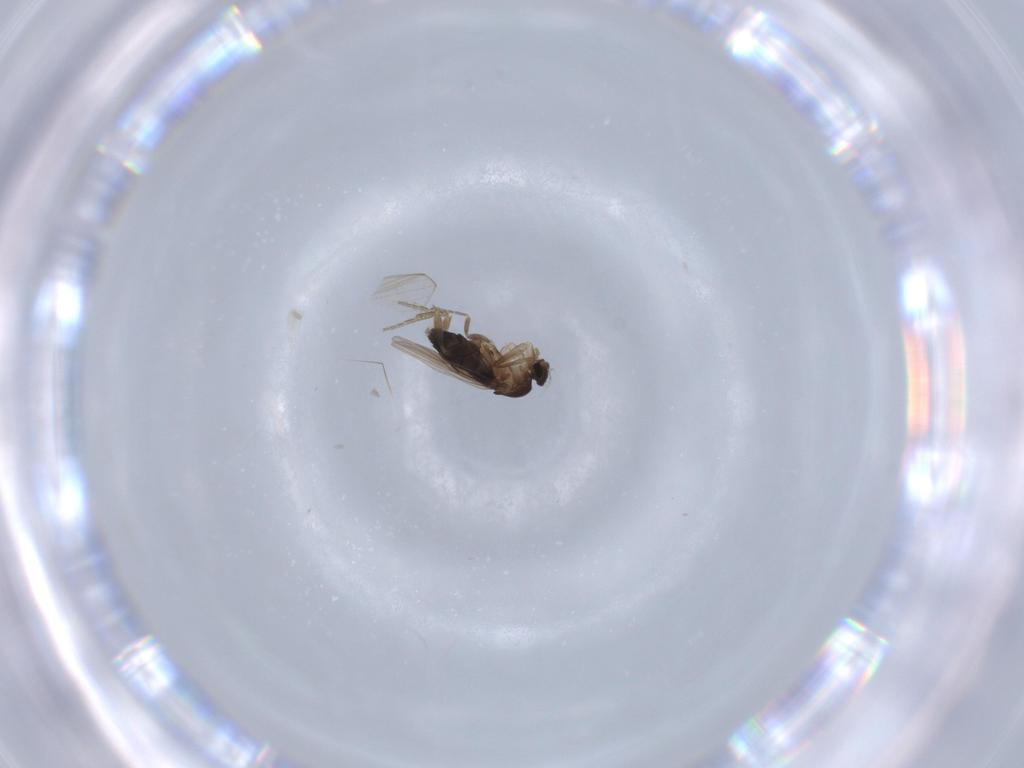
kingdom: Animalia
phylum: Arthropoda
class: Insecta
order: Diptera
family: Psychodidae
